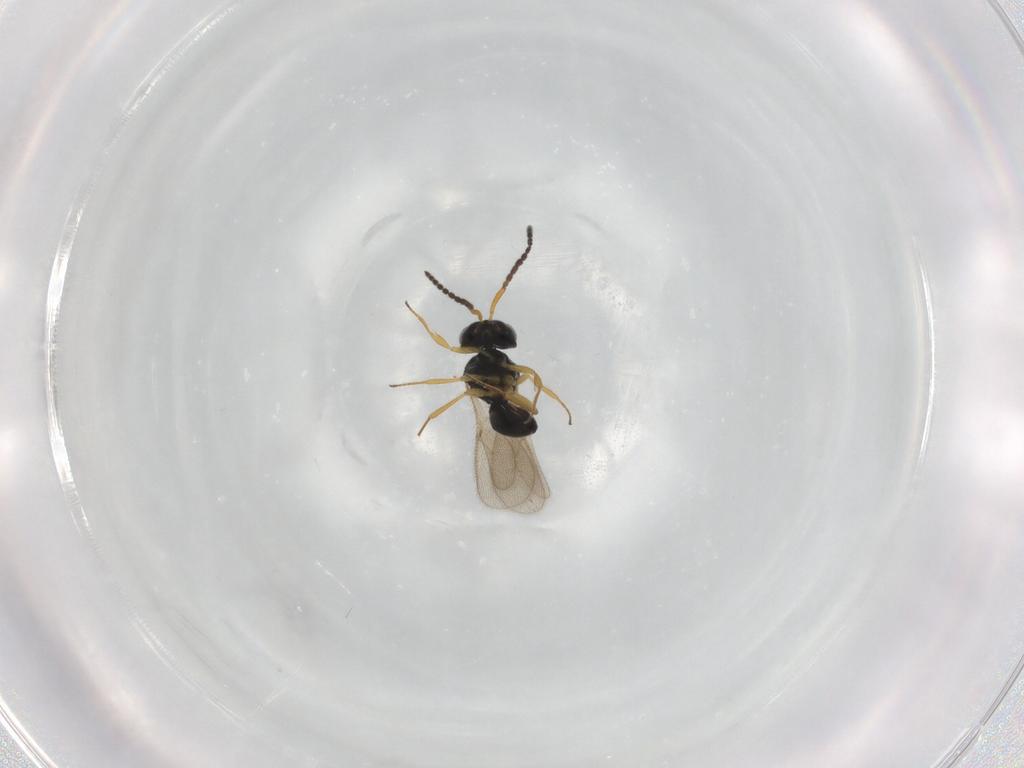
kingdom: Animalia
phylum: Arthropoda
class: Insecta
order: Hymenoptera
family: Scelionidae
